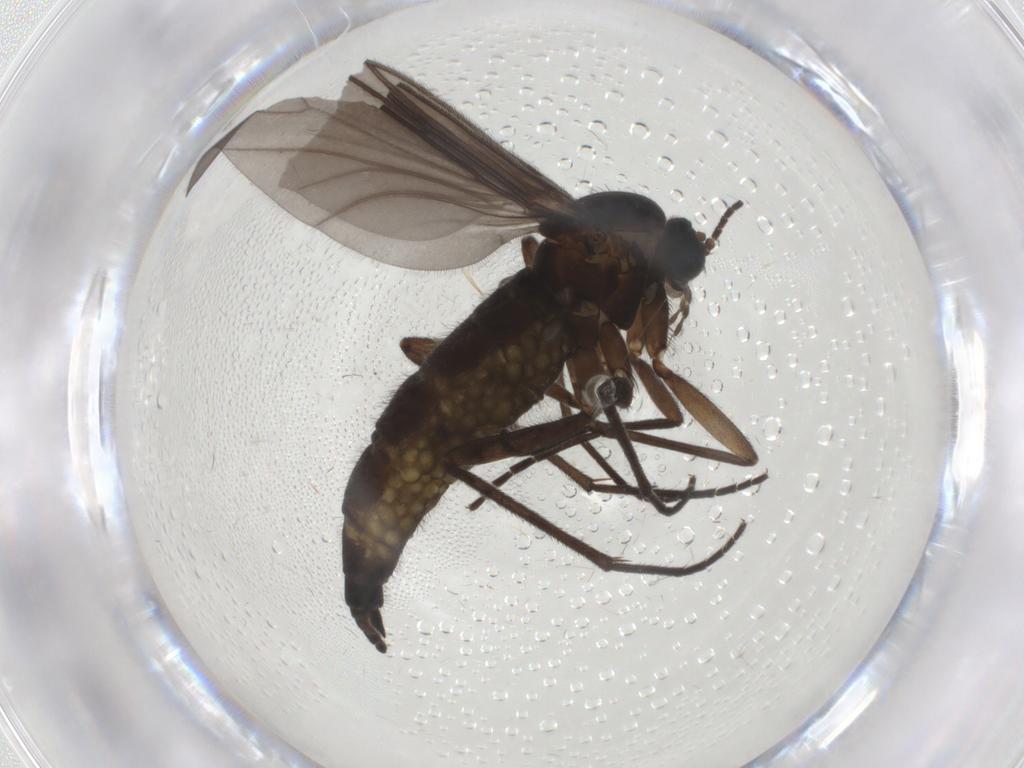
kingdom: Animalia
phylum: Arthropoda
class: Insecta
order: Diptera
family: Sciaridae
